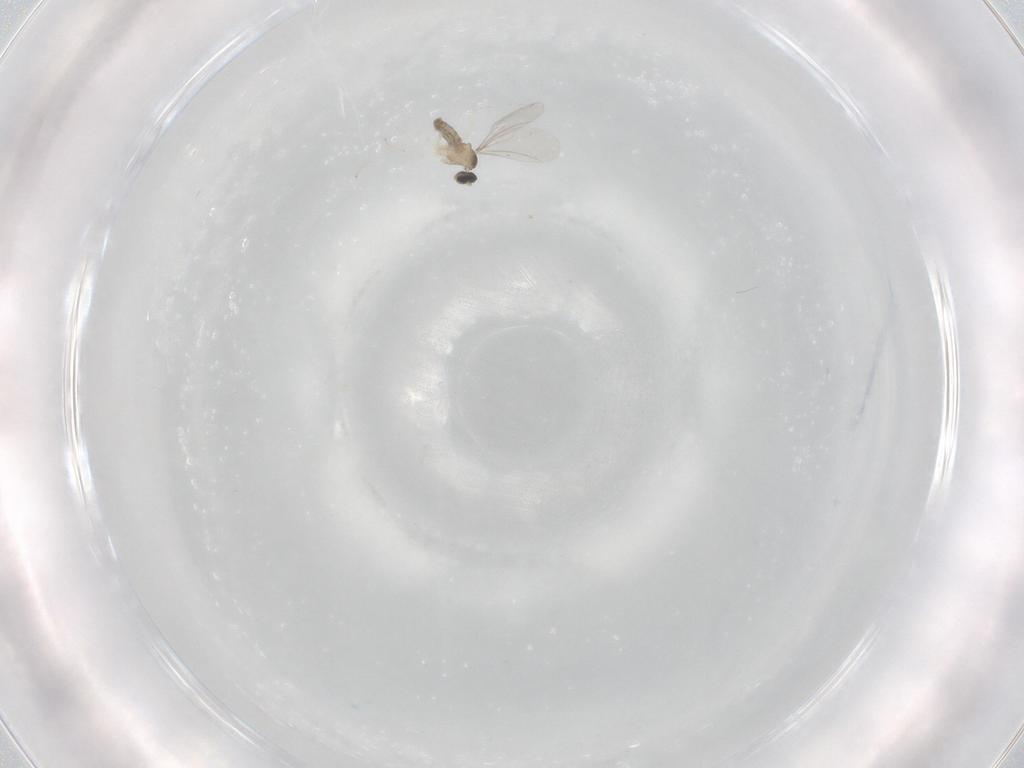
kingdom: Animalia
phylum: Arthropoda
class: Insecta
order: Diptera
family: Cecidomyiidae
